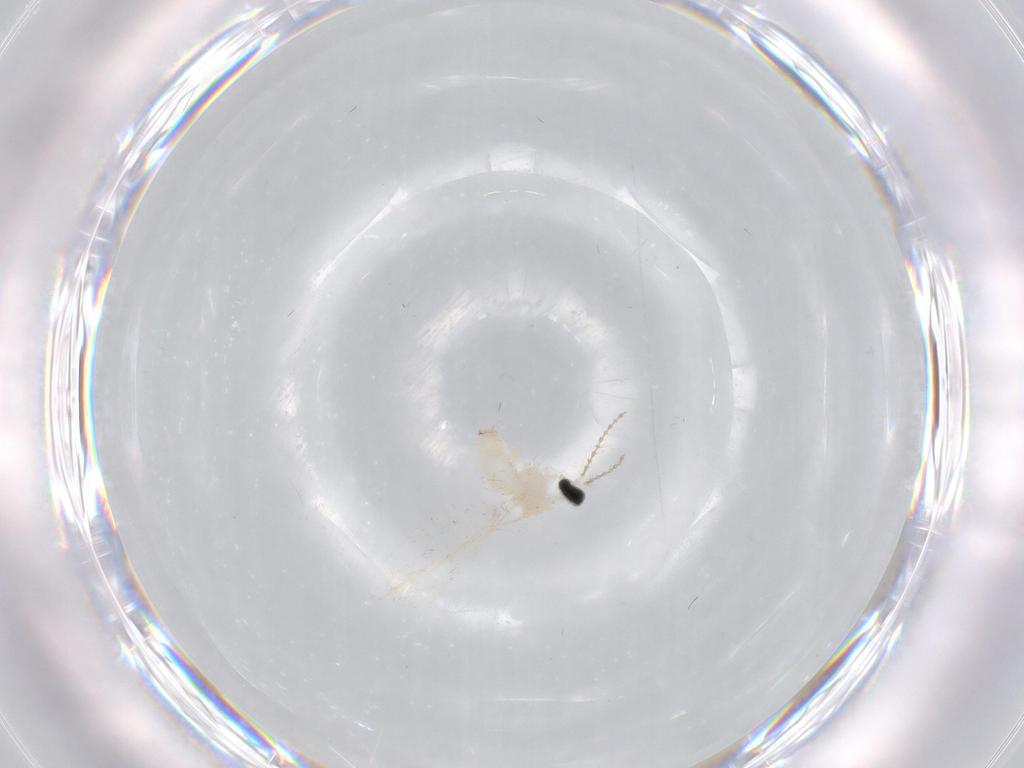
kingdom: Animalia
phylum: Arthropoda
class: Insecta
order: Diptera
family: Cecidomyiidae
